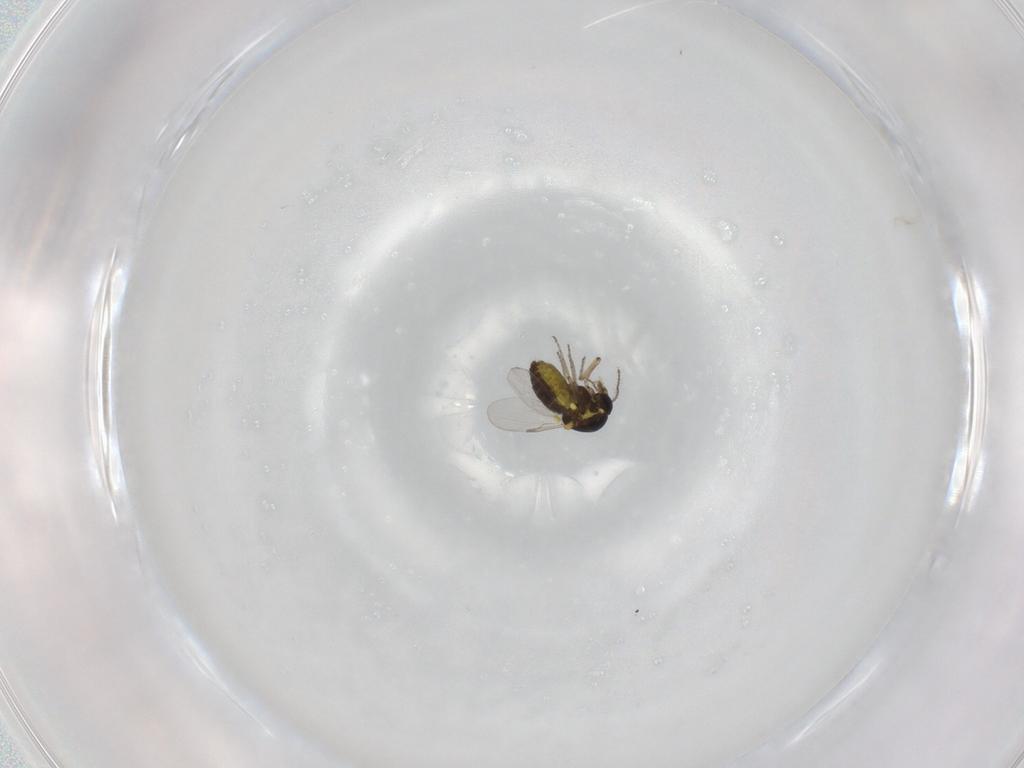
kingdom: Animalia
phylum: Arthropoda
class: Insecta
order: Diptera
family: Ceratopogonidae
